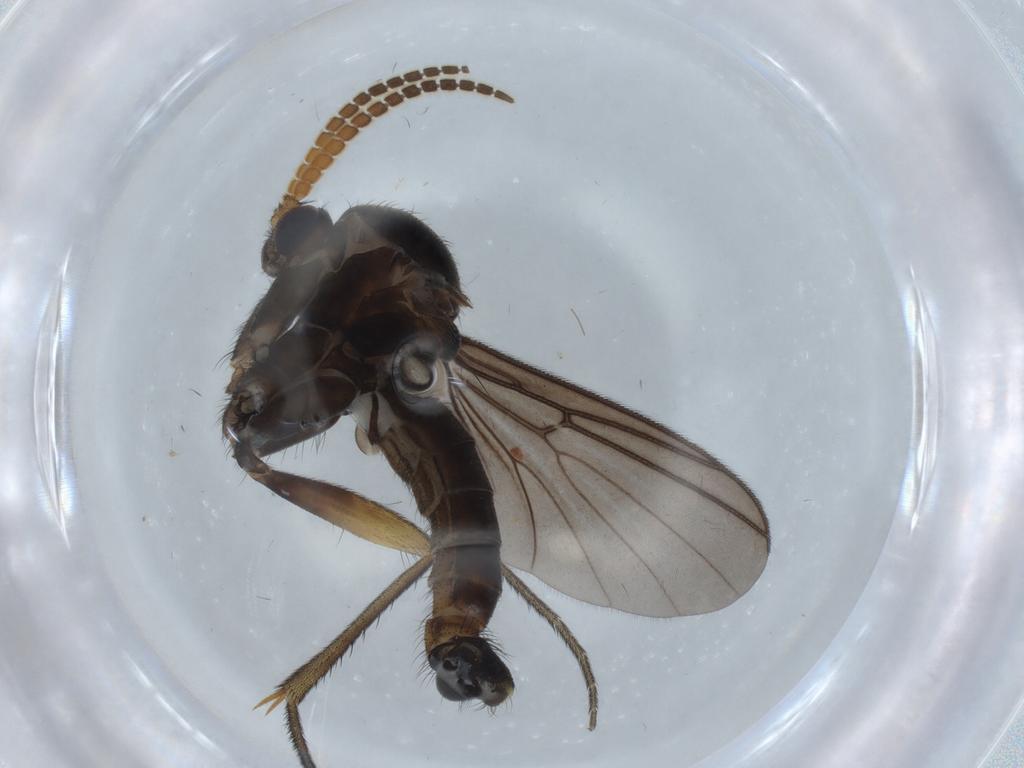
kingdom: Animalia
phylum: Arthropoda
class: Insecta
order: Diptera
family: Mycetophilidae
